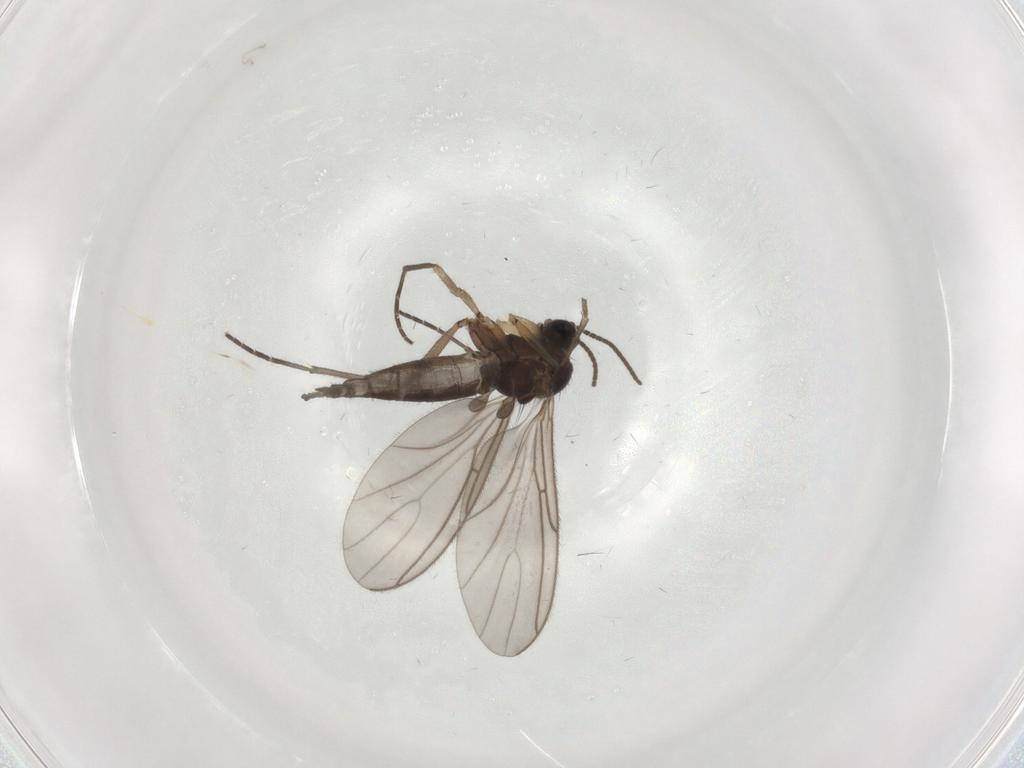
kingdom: Animalia
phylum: Arthropoda
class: Insecta
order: Diptera
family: Sciaridae
